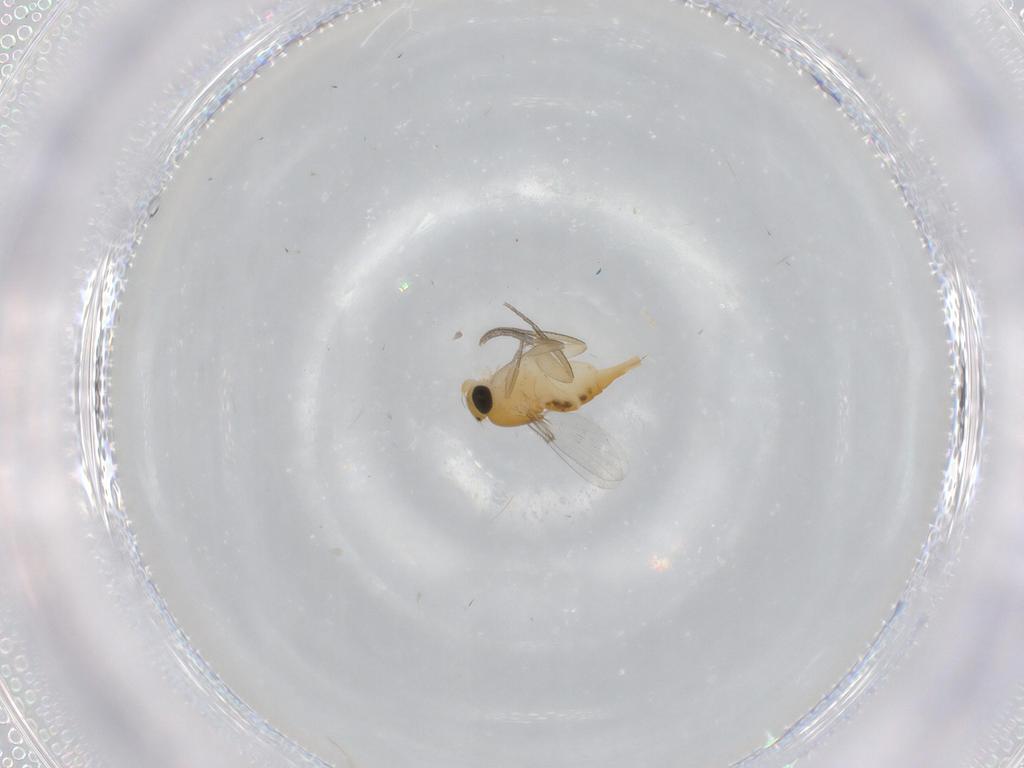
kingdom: Animalia
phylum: Arthropoda
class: Insecta
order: Diptera
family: Phoridae
